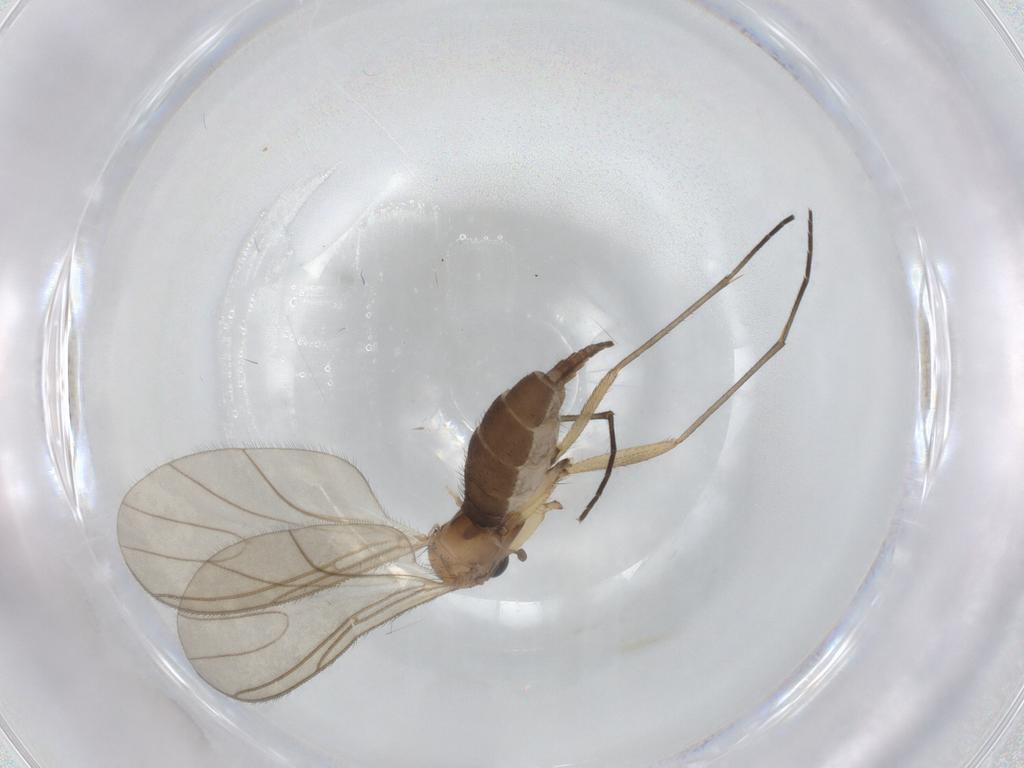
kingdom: Animalia
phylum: Arthropoda
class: Insecta
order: Diptera
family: Sciaridae
